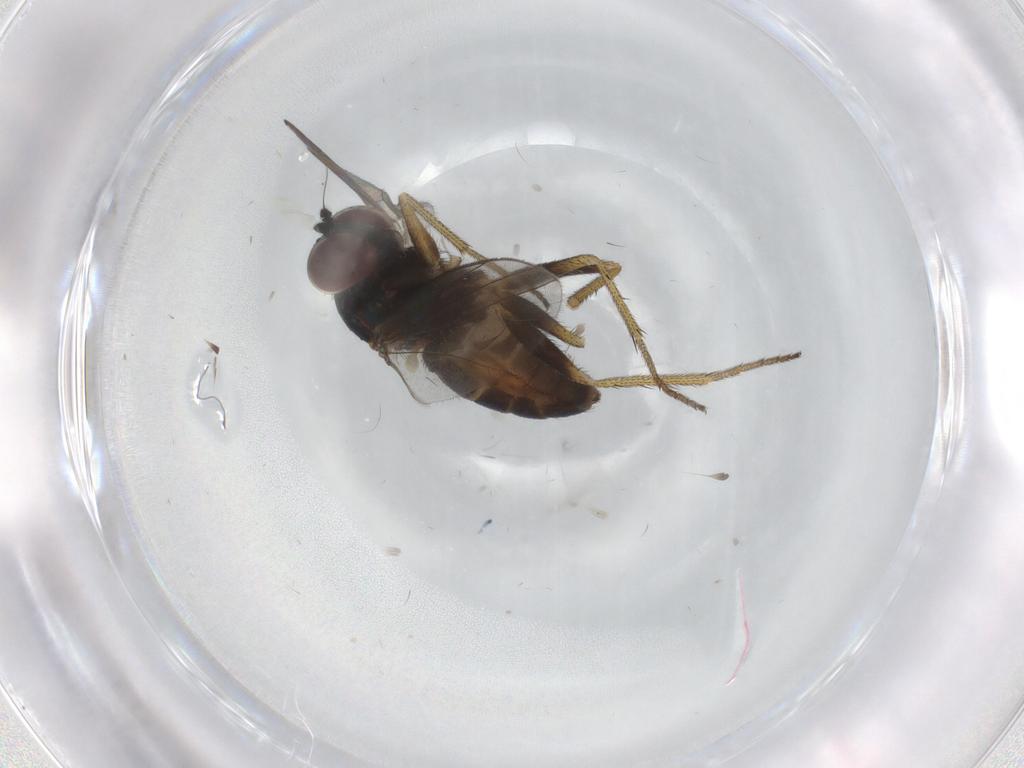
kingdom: Animalia
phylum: Arthropoda
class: Insecta
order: Diptera
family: Dolichopodidae
